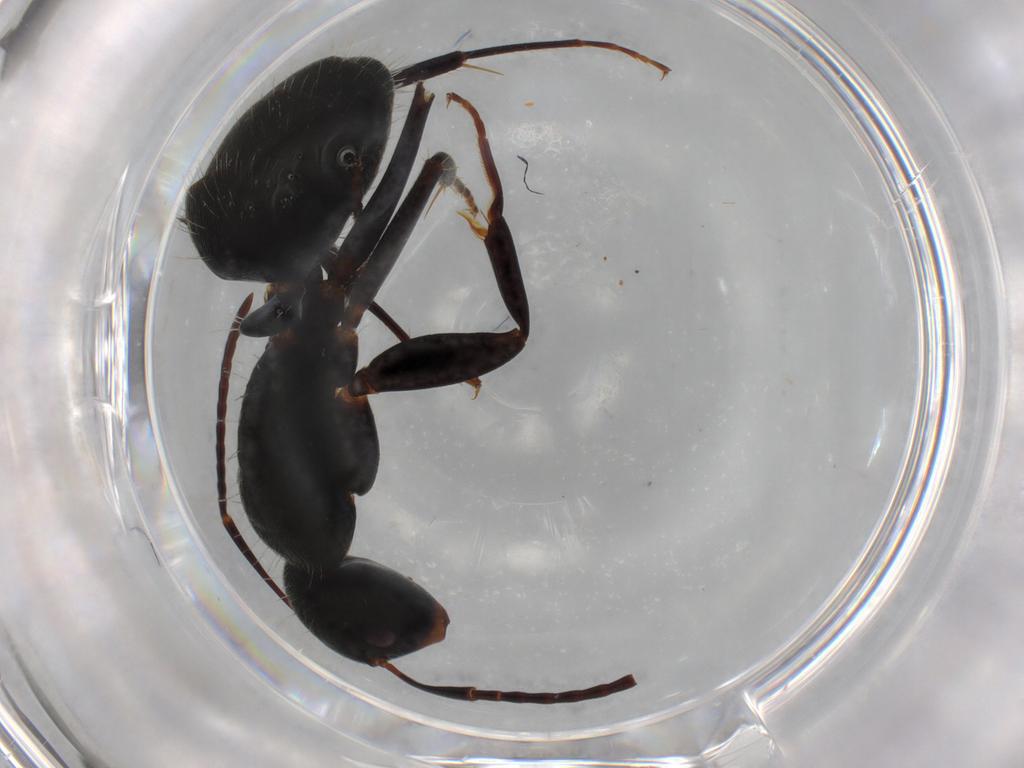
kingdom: Animalia
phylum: Arthropoda
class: Insecta
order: Hymenoptera
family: Formicidae
